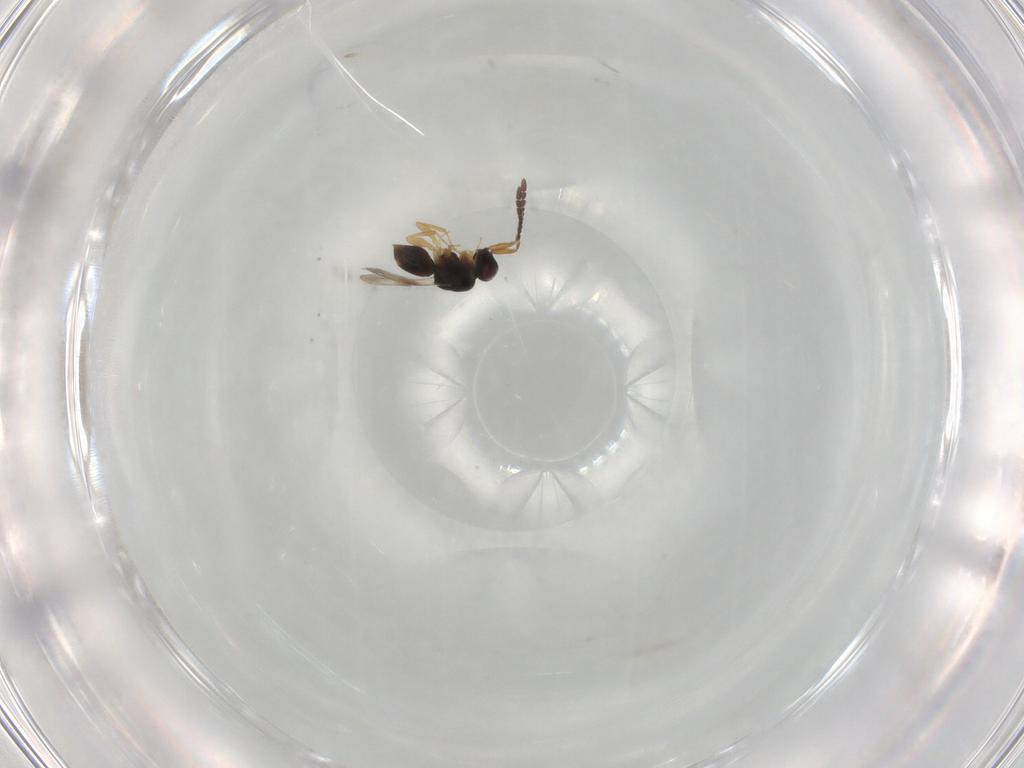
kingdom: Animalia
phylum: Arthropoda
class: Insecta
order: Hymenoptera
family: Ichneumonidae
